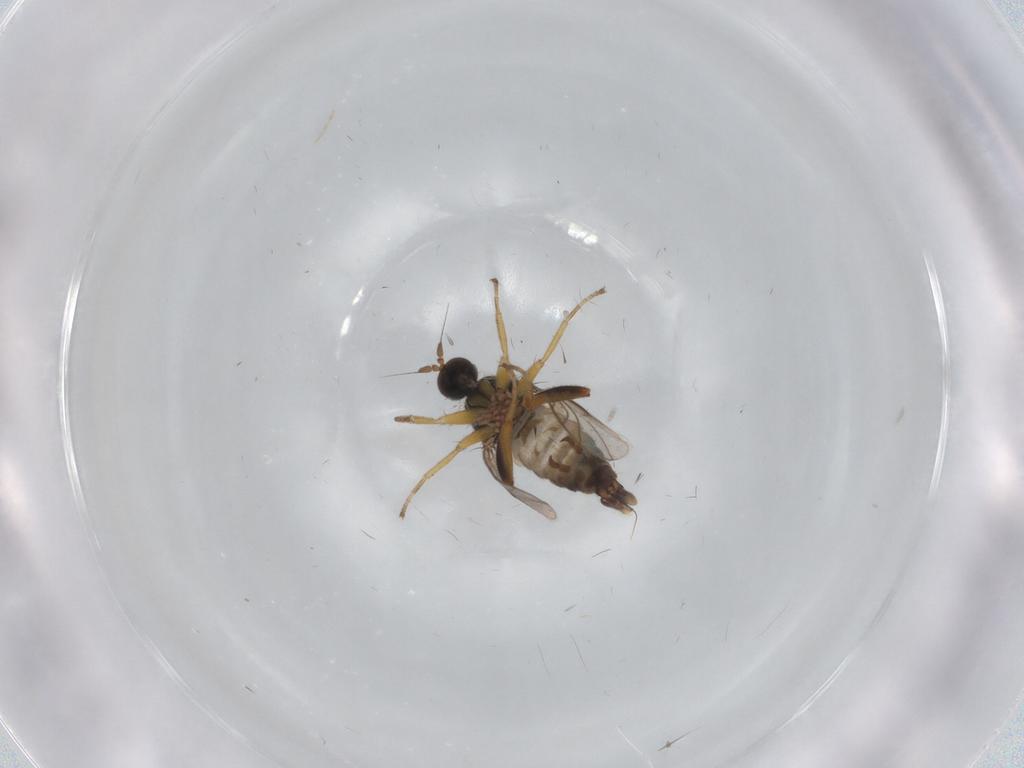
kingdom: Animalia
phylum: Arthropoda
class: Insecta
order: Diptera
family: Hybotidae
